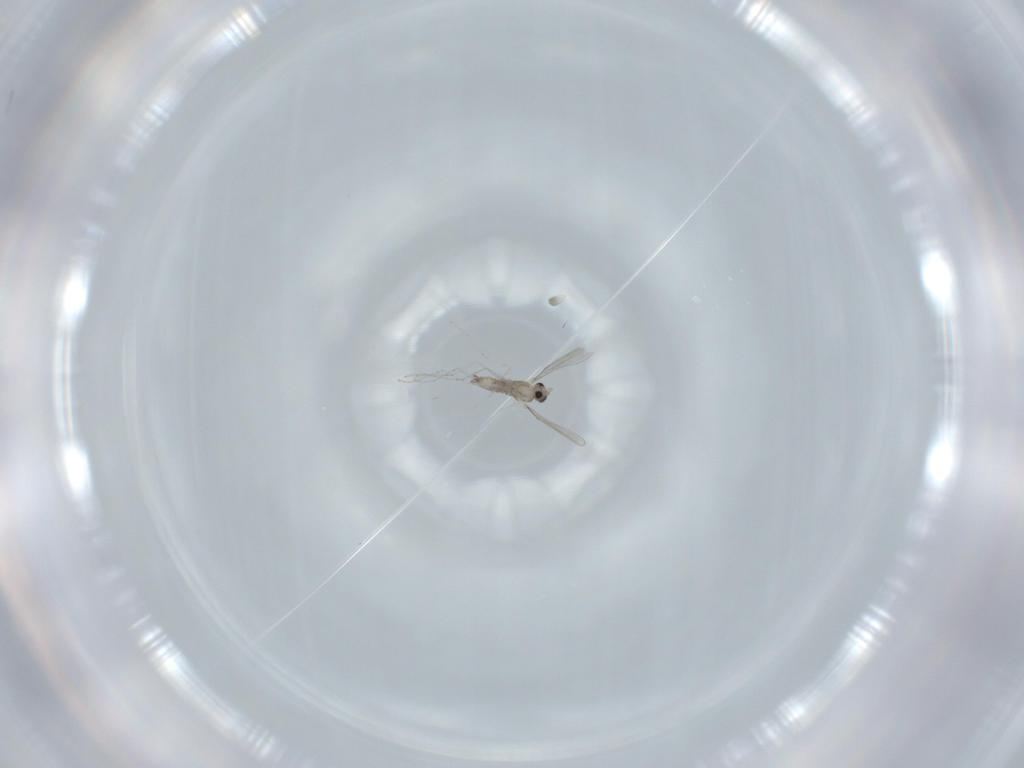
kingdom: Animalia
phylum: Arthropoda
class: Insecta
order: Diptera
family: Cecidomyiidae
